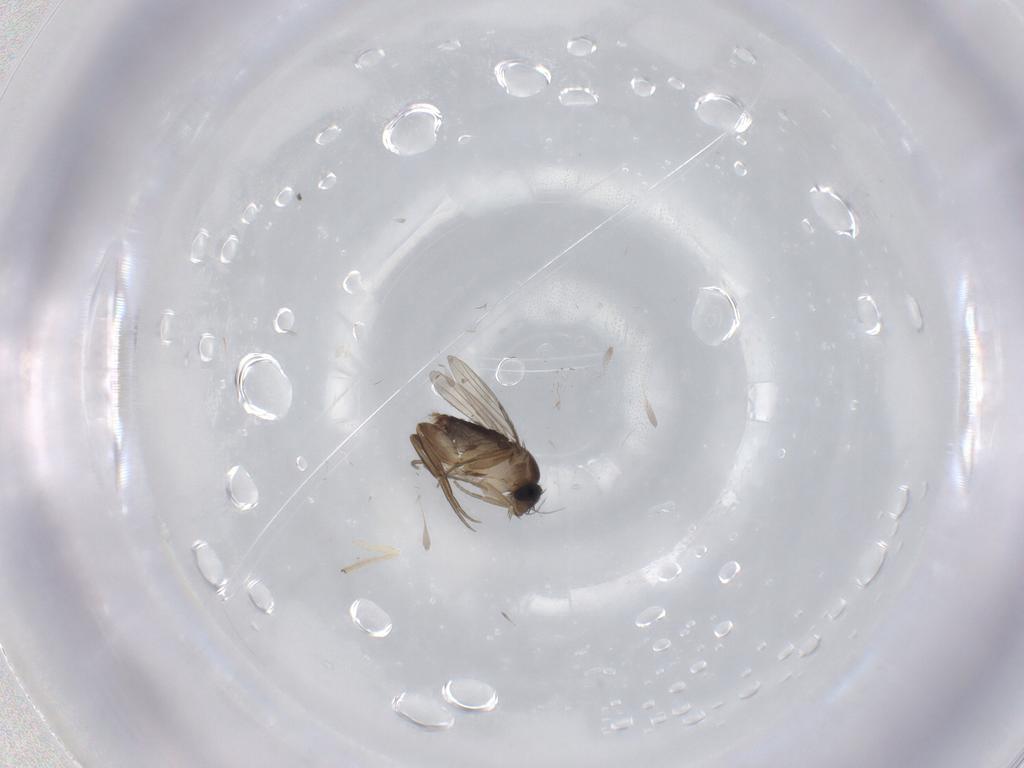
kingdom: Animalia
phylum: Arthropoda
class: Insecta
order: Diptera
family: Phoridae
